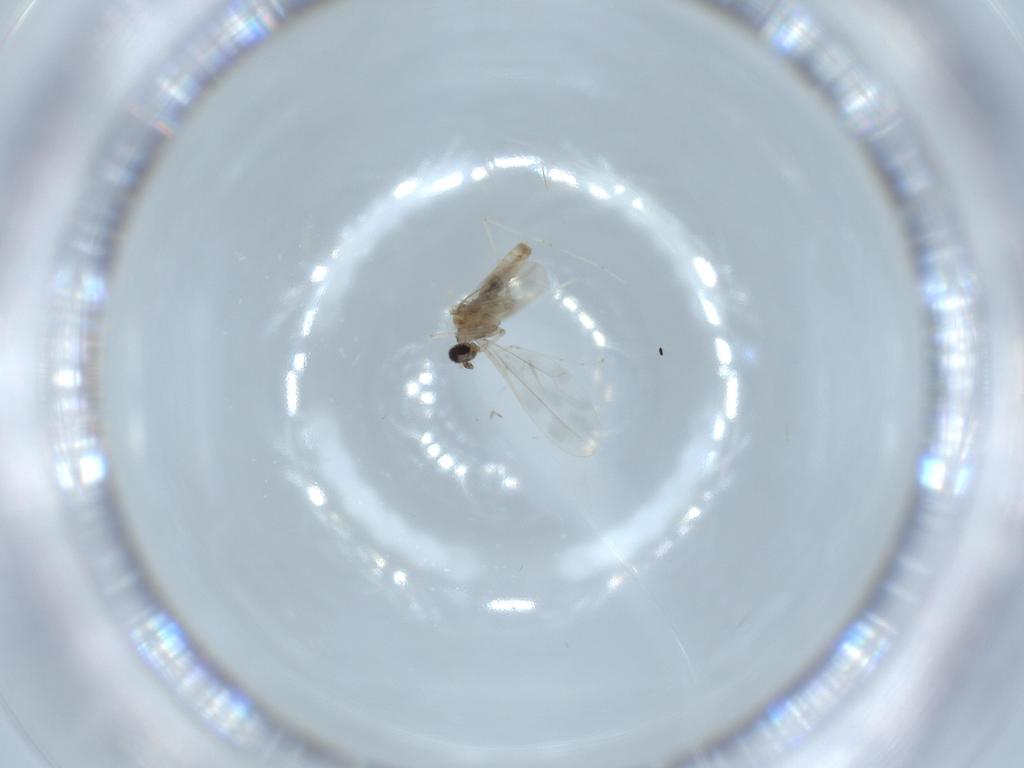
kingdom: Animalia
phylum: Arthropoda
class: Insecta
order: Diptera
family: Cecidomyiidae
